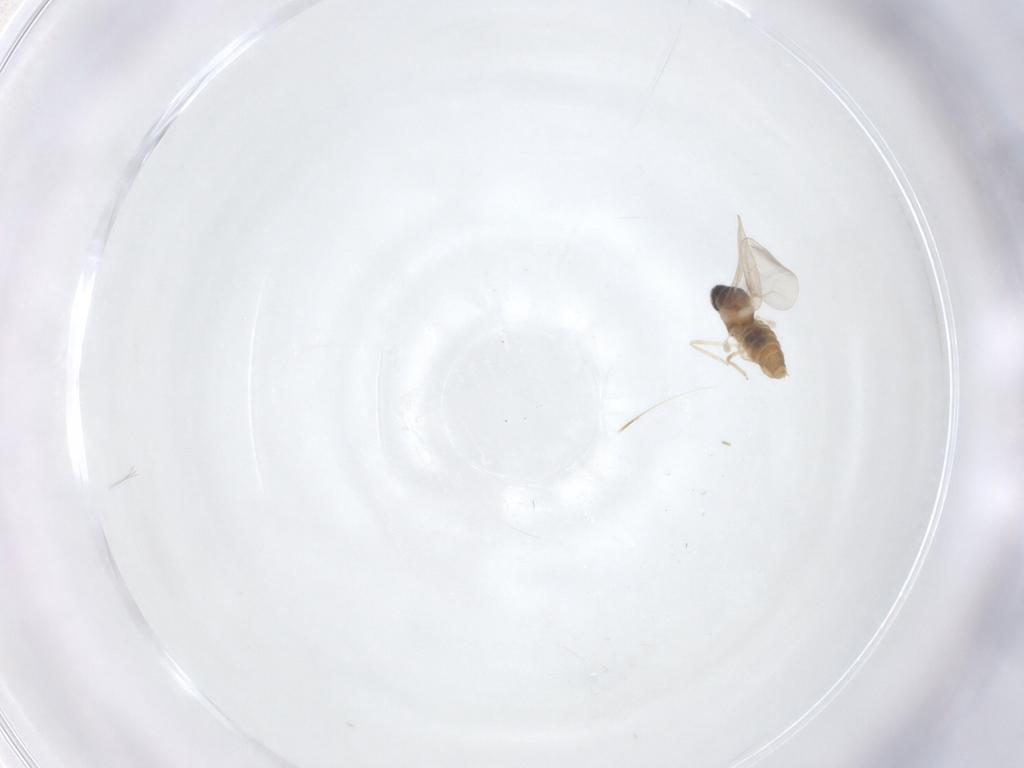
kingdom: Animalia
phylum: Arthropoda
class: Insecta
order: Diptera
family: Cecidomyiidae
